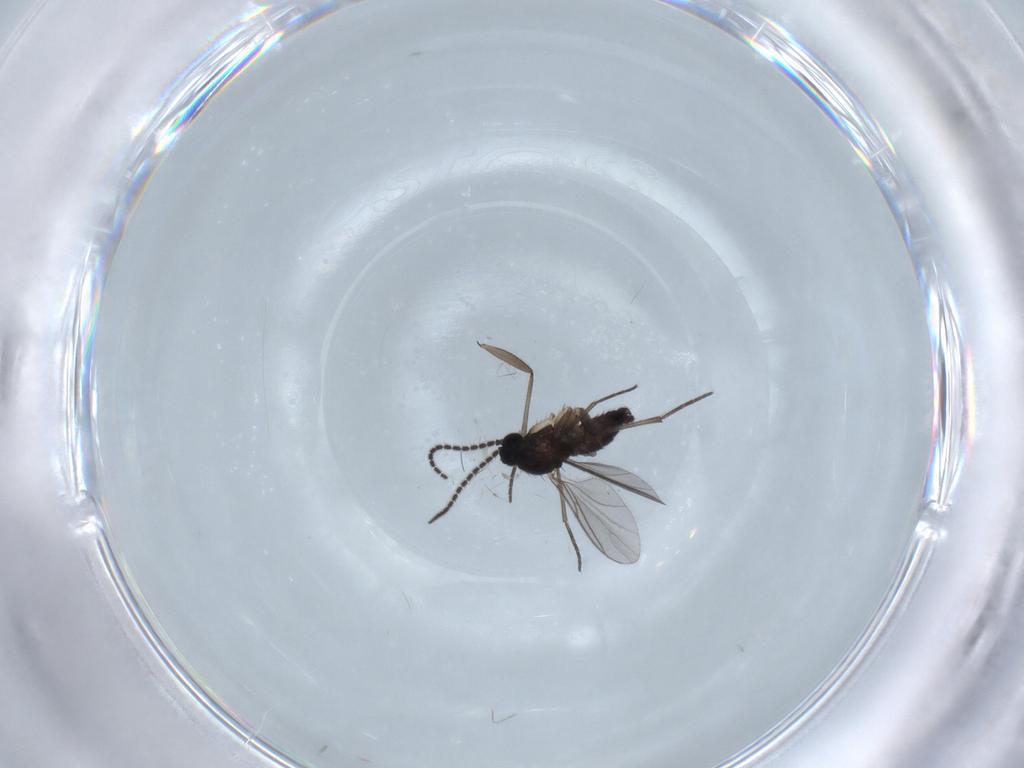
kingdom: Animalia
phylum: Arthropoda
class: Insecta
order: Diptera
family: Sciaridae
